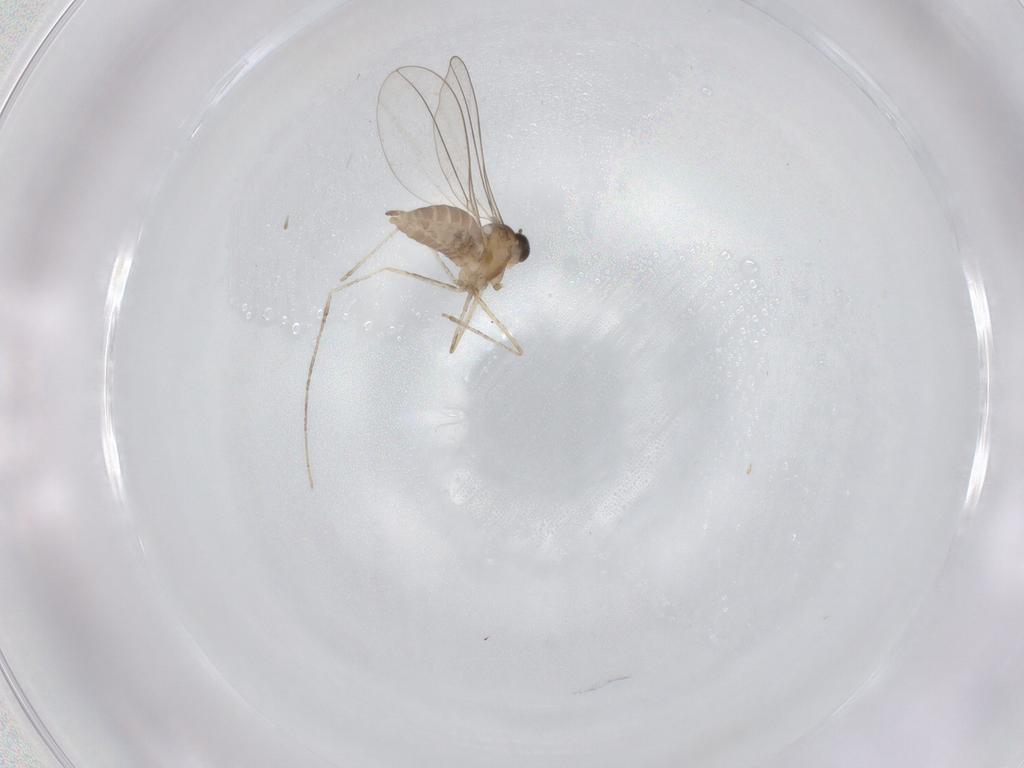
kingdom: Animalia
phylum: Arthropoda
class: Insecta
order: Diptera
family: Cecidomyiidae
